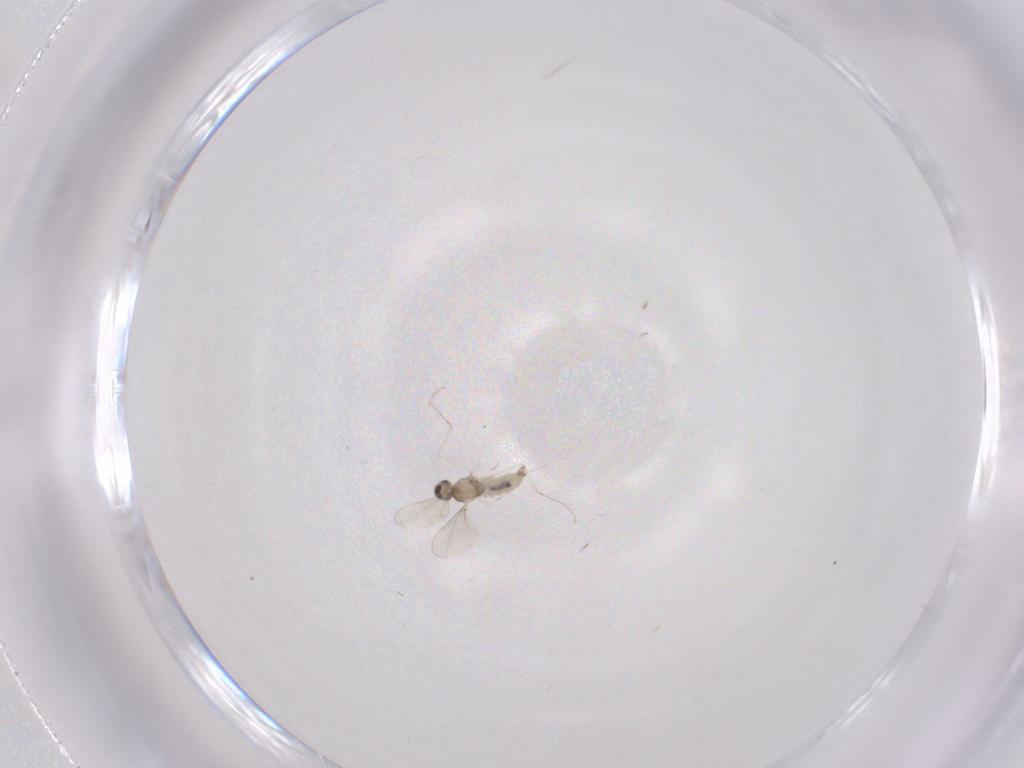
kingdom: Animalia
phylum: Arthropoda
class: Insecta
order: Diptera
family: Cecidomyiidae
